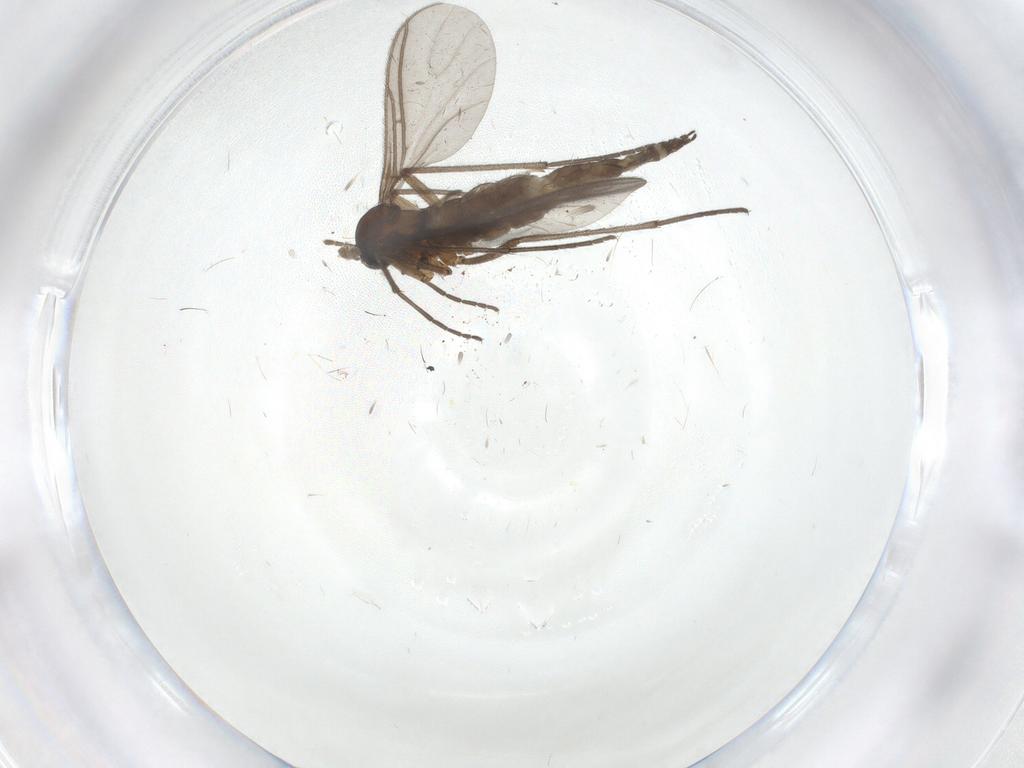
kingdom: Animalia
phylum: Arthropoda
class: Insecta
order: Diptera
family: Sciaridae
